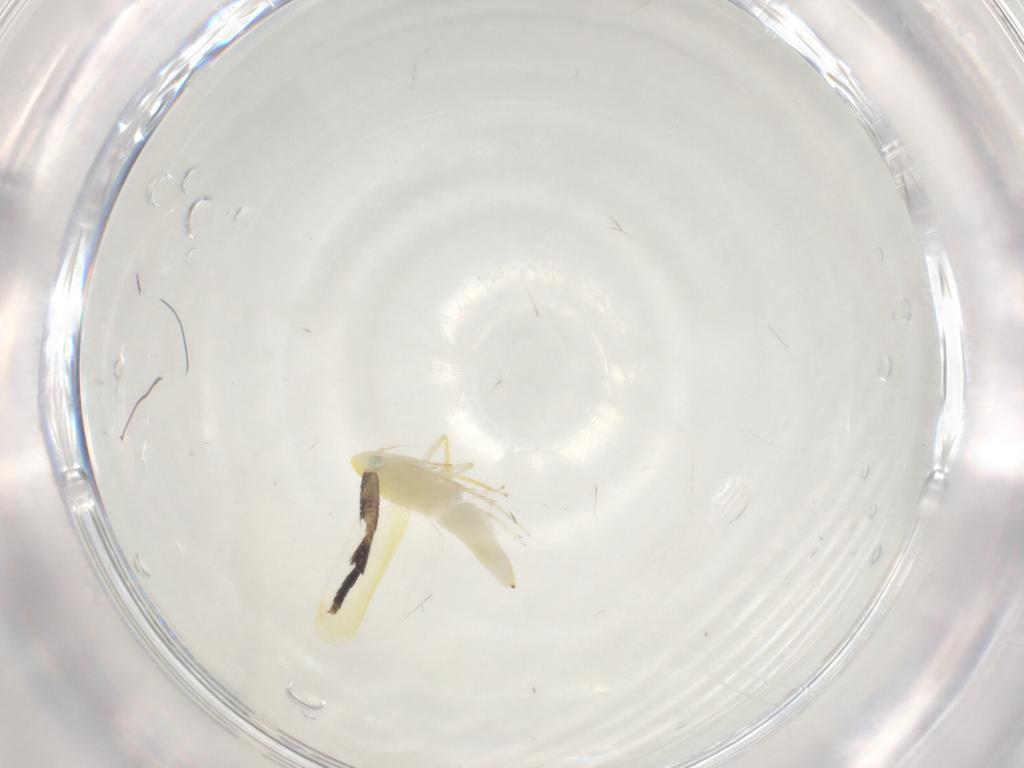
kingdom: Animalia
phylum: Arthropoda
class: Insecta
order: Hemiptera
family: Cicadellidae
